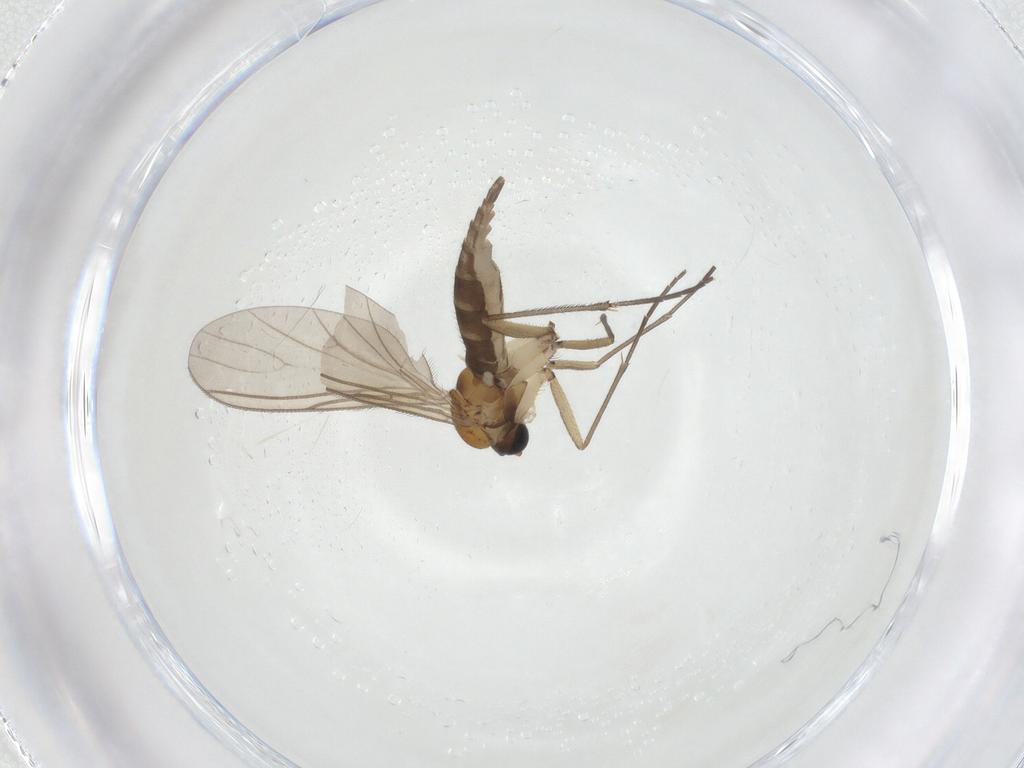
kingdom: Animalia
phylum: Arthropoda
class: Insecta
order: Diptera
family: Sciaridae
